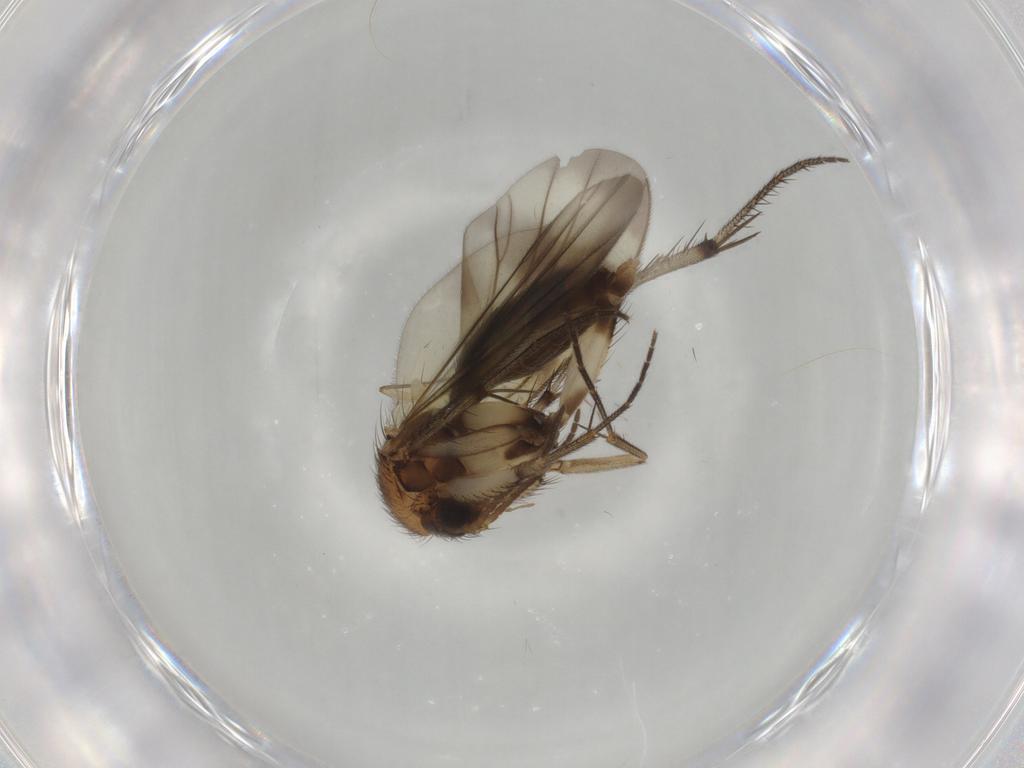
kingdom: Animalia
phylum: Arthropoda
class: Insecta
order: Diptera
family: Mycetophilidae
